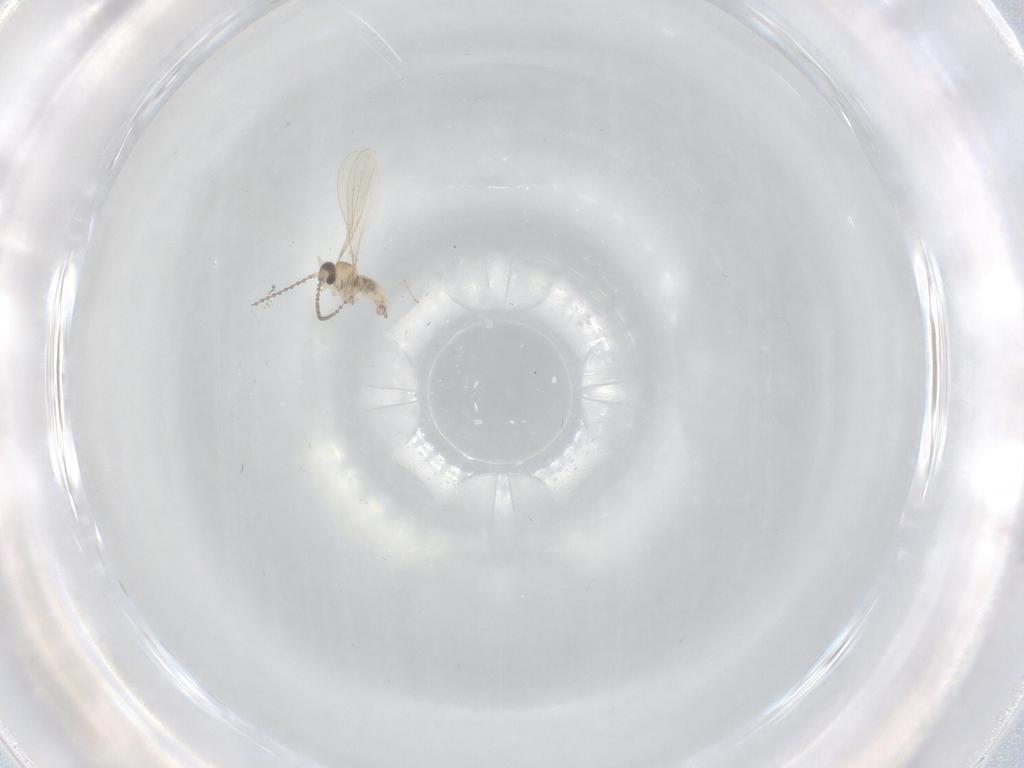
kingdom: Animalia
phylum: Arthropoda
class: Insecta
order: Diptera
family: Cecidomyiidae
